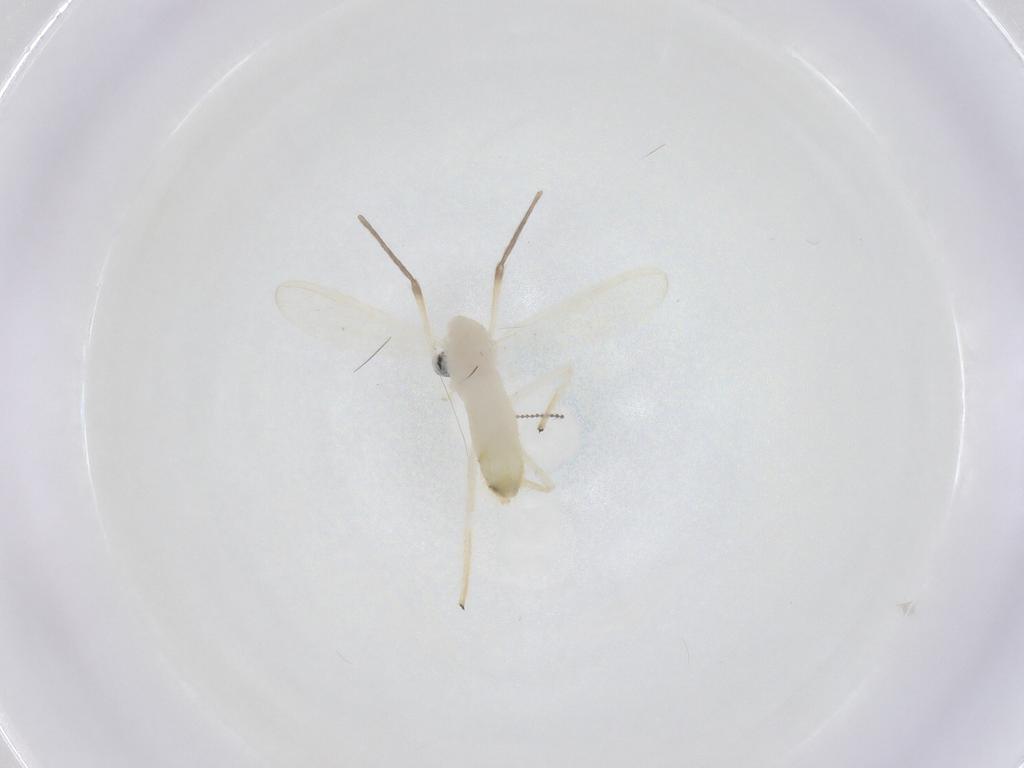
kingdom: Animalia
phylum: Arthropoda
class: Insecta
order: Diptera
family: Chironomidae
